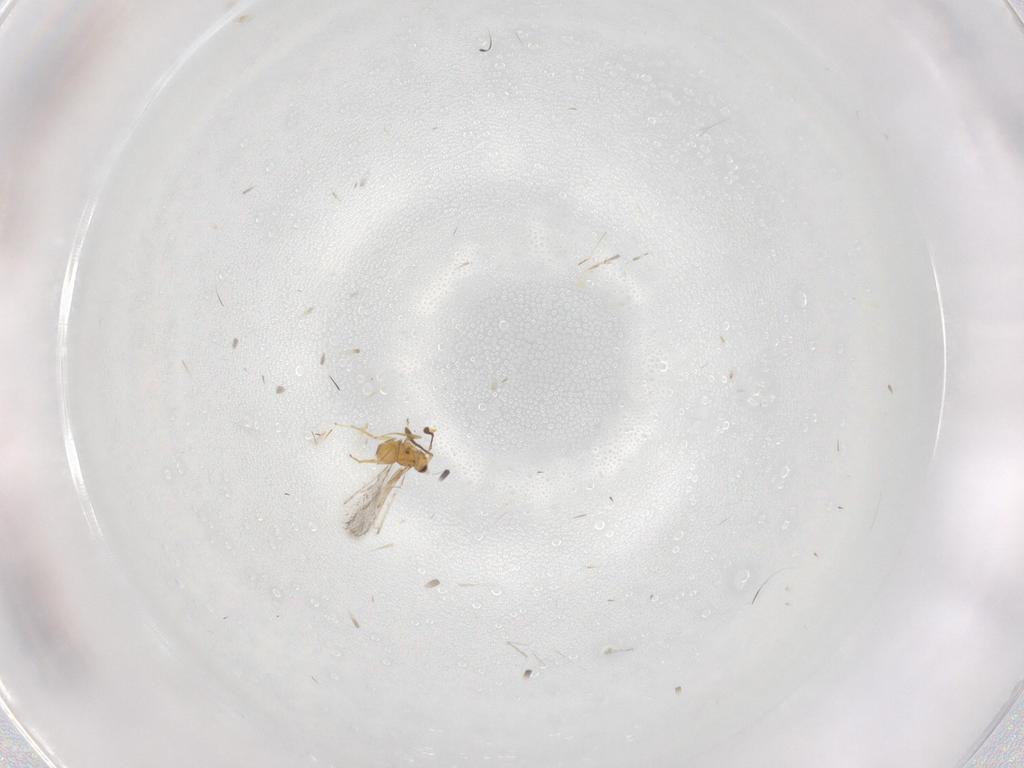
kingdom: Animalia
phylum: Arthropoda
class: Insecta
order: Diptera
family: Chironomidae
